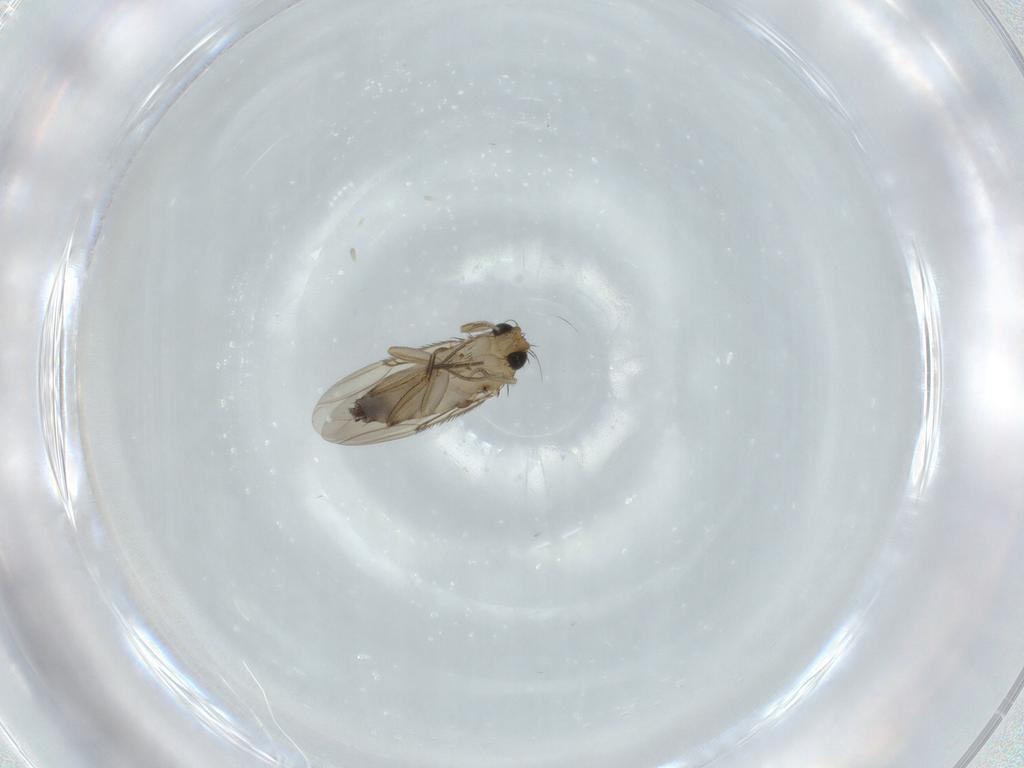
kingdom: Animalia
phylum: Arthropoda
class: Insecta
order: Diptera
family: Phoridae
